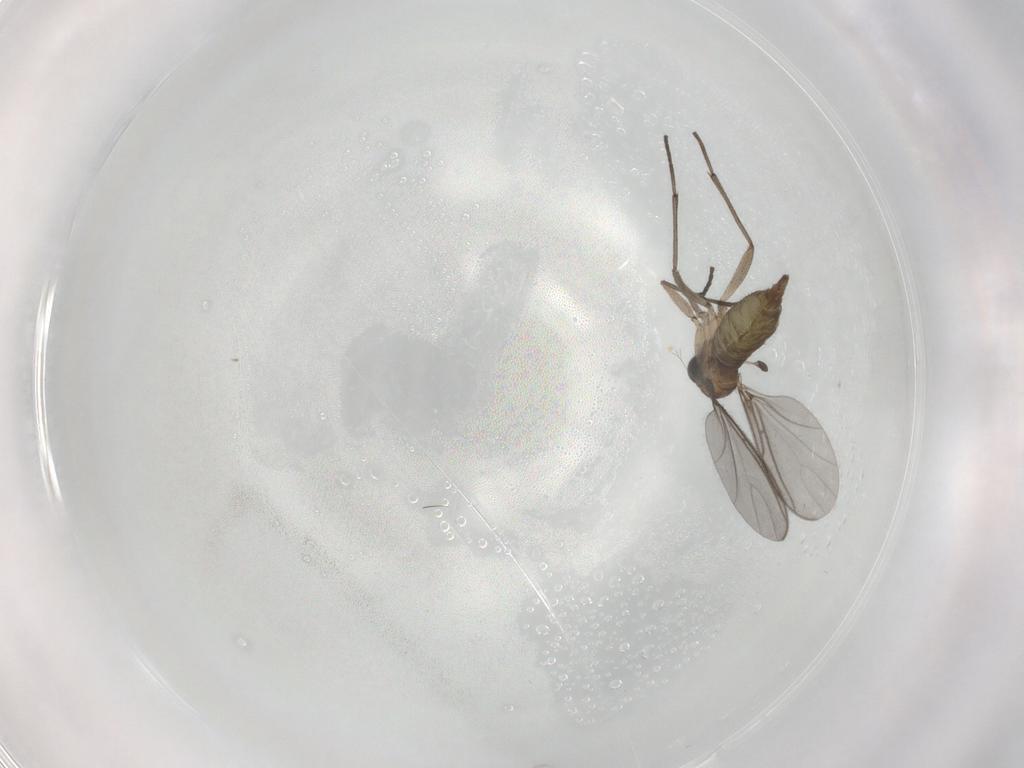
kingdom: Animalia
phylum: Arthropoda
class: Insecta
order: Diptera
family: Sciaridae
